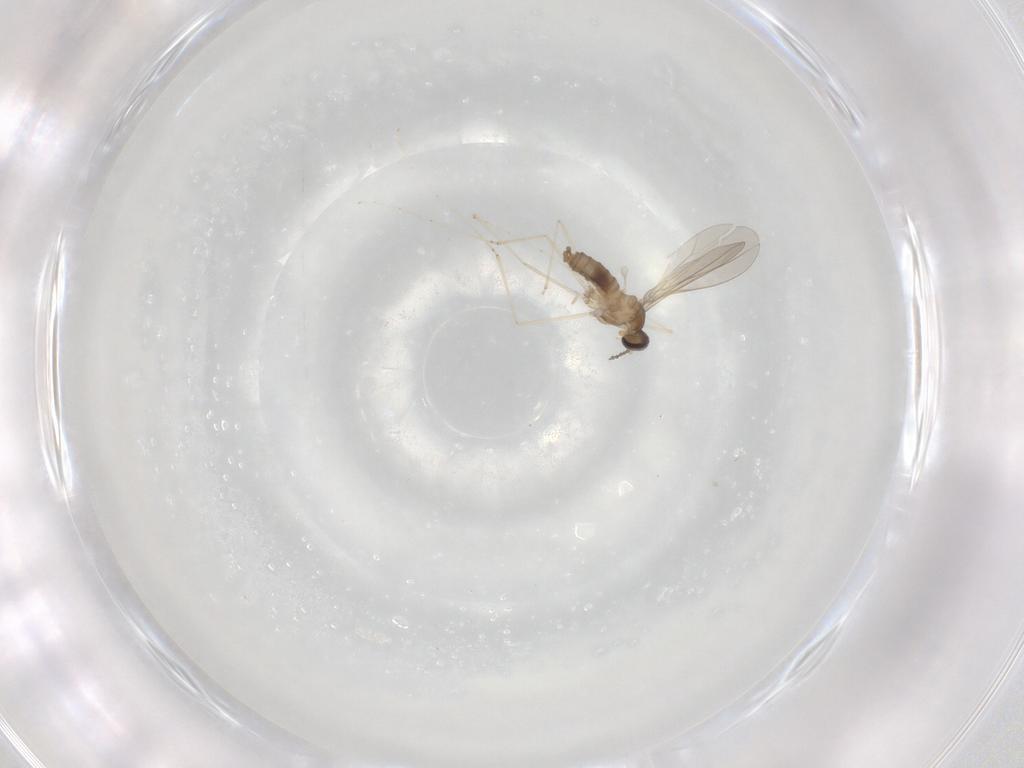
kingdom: Animalia
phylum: Arthropoda
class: Insecta
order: Diptera
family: Cecidomyiidae
